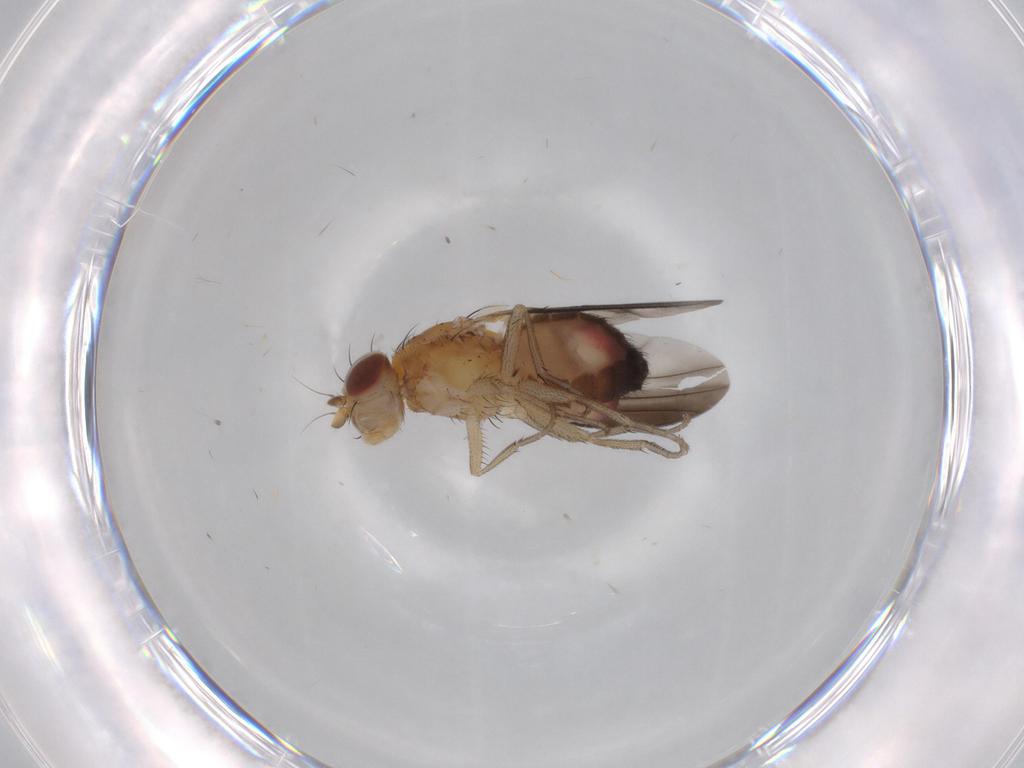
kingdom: Animalia
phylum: Arthropoda
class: Insecta
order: Diptera
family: Heleomyzidae
